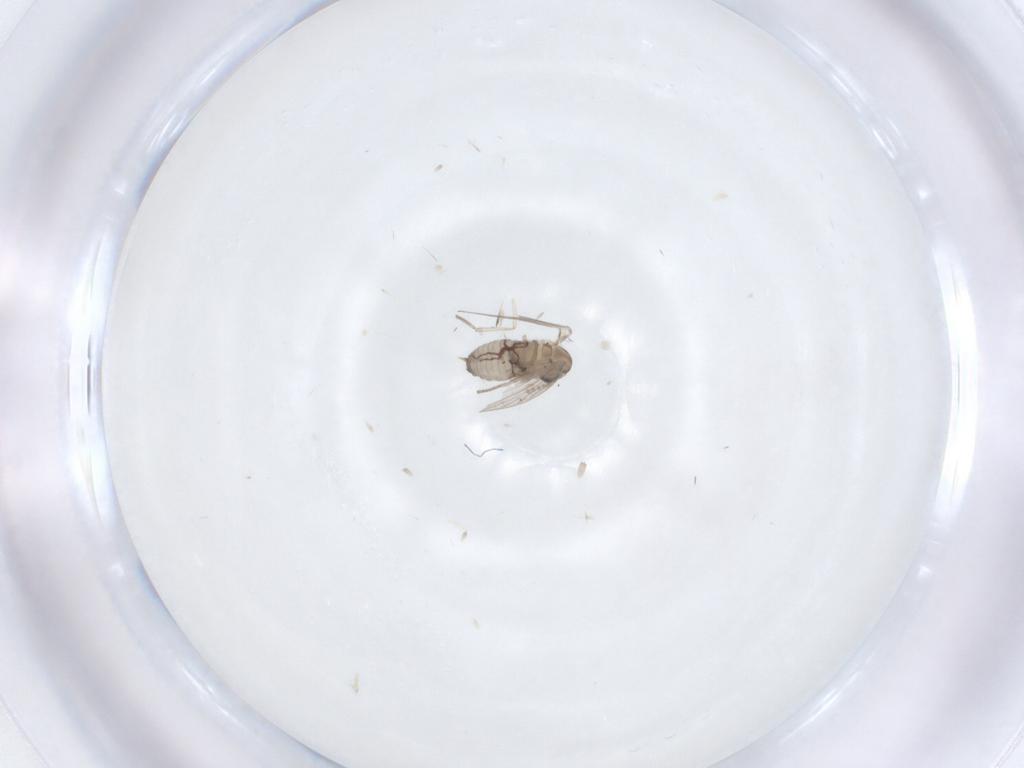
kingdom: Animalia
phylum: Arthropoda
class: Insecta
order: Diptera
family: Psychodidae
